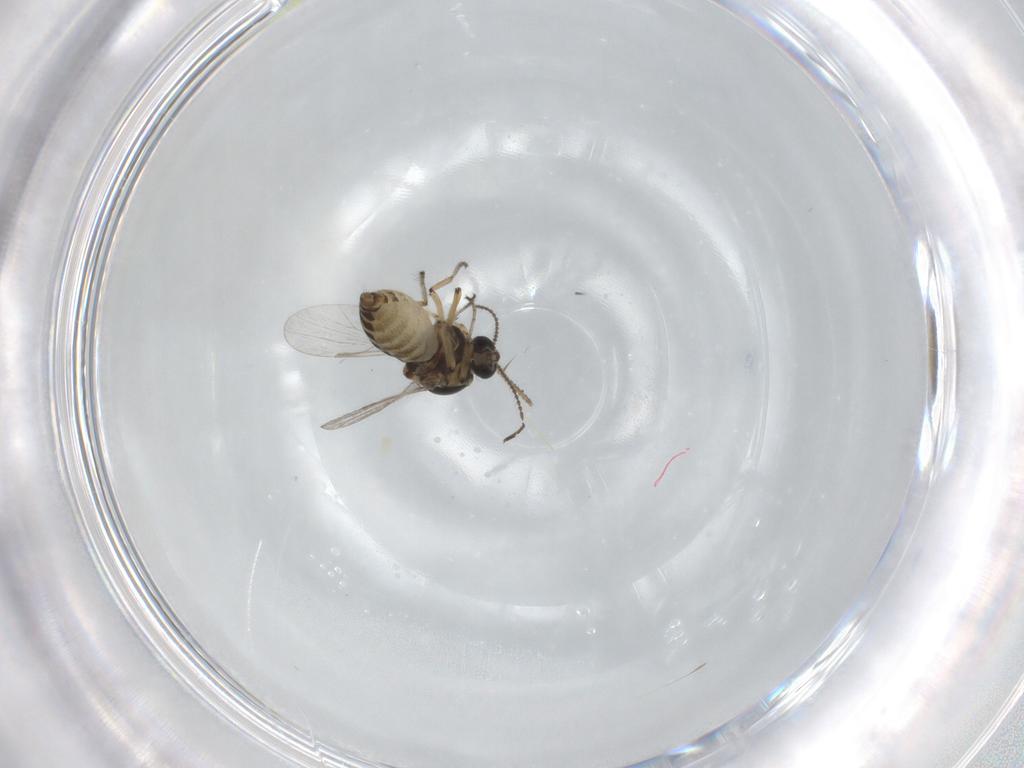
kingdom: Animalia
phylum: Arthropoda
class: Insecta
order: Diptera
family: Ceratopogonidae
